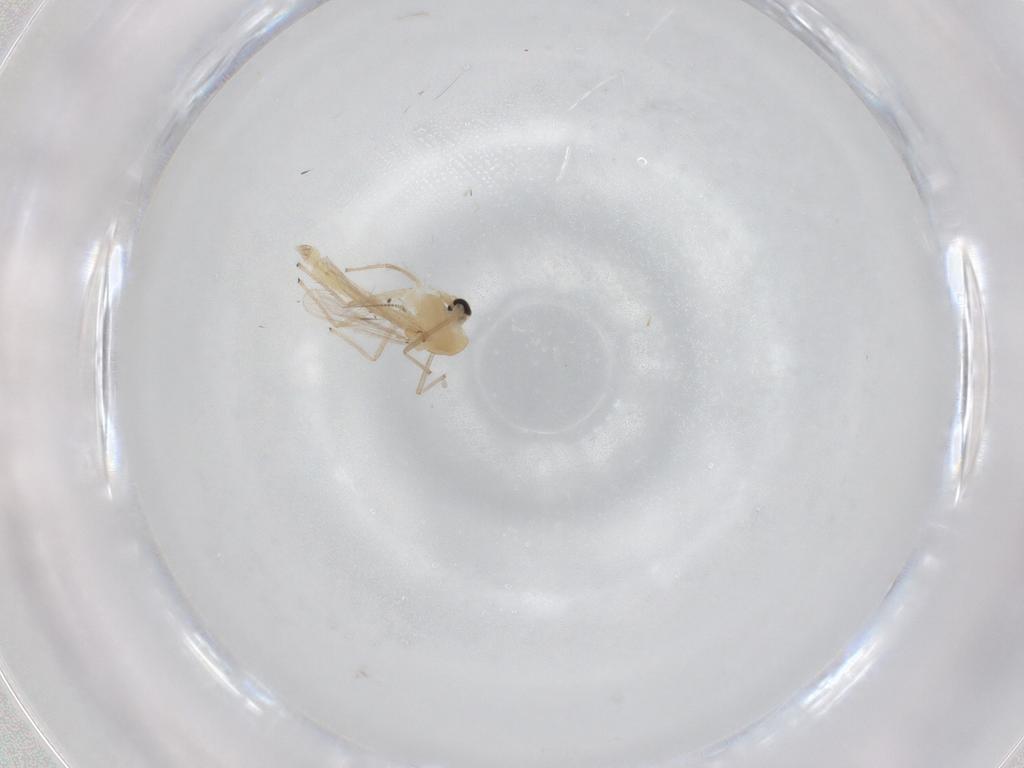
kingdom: Animalia
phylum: Arthropoda
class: Insecta
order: Diptera
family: Chironomidae
